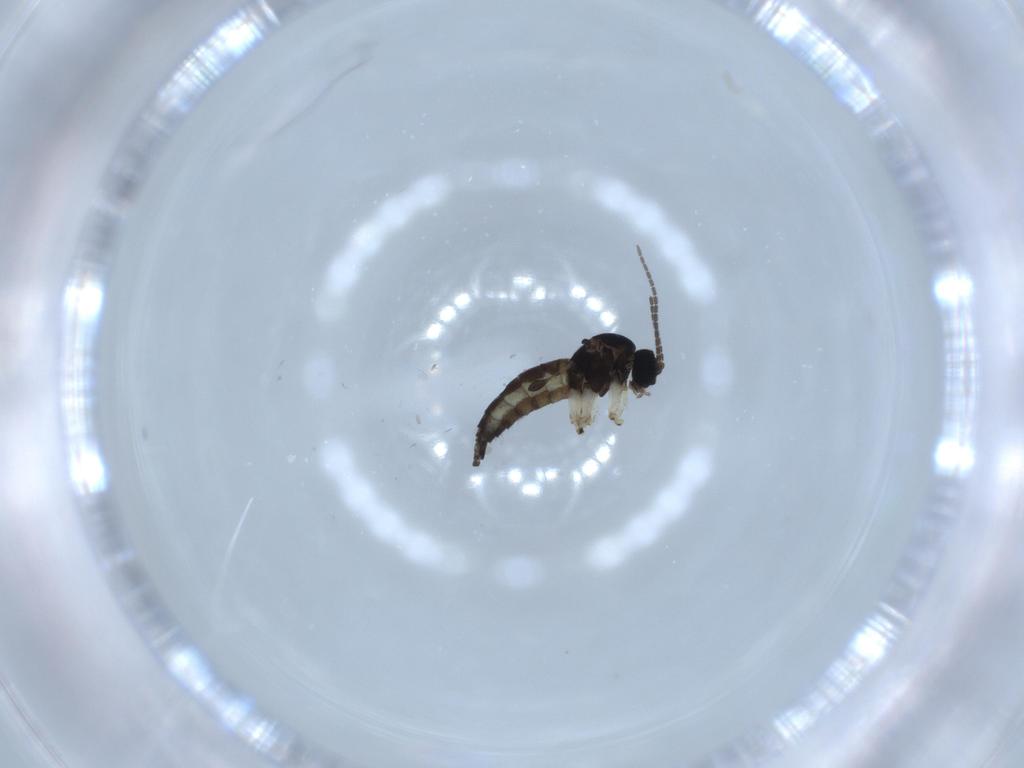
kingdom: Animalia
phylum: Arthropoda
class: Insecta
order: Diptera
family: Sciaridae
